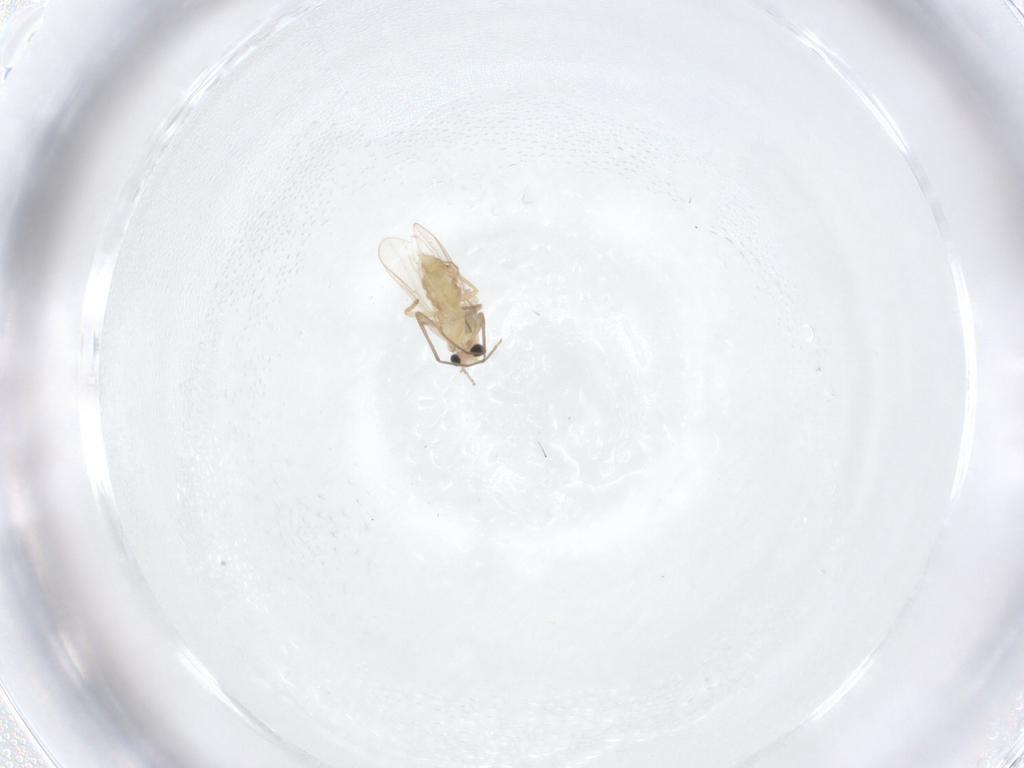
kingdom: Animalia
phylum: Arthropoda
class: Insecta
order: Diptera
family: Chironomidae
